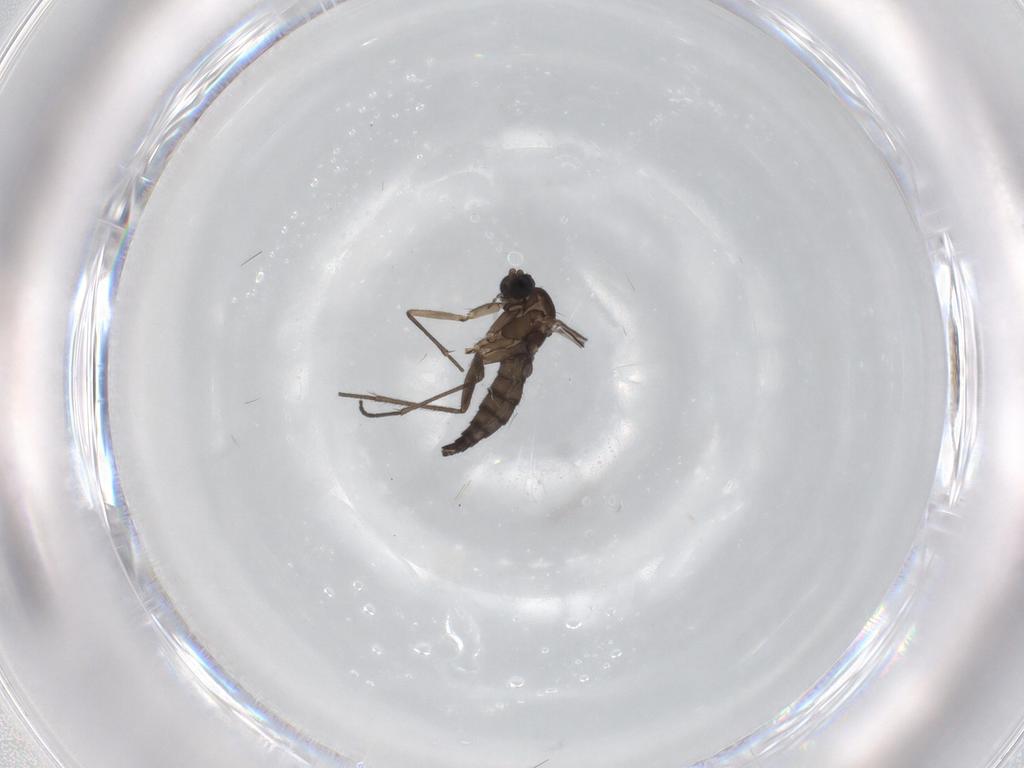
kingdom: Animalia
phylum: Arthropoda
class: Insecta
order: Diptera
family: Sciaridae
